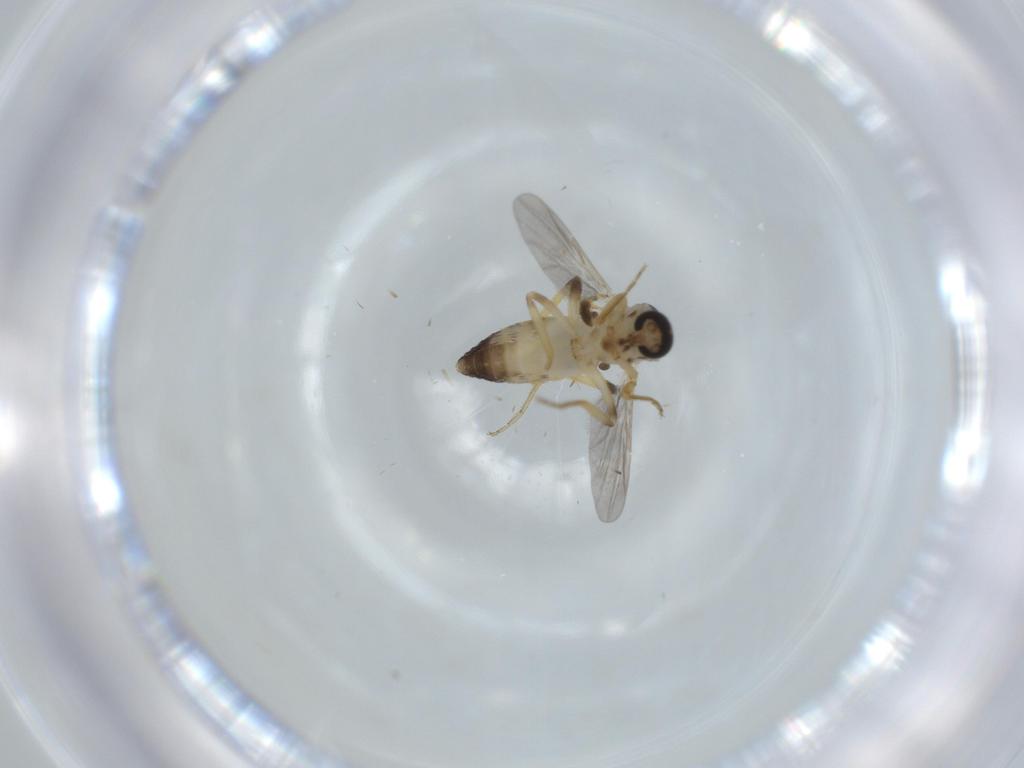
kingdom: Animalia
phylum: Arthropoda
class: Insecta
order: Diptera
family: Ceratopogonidae
